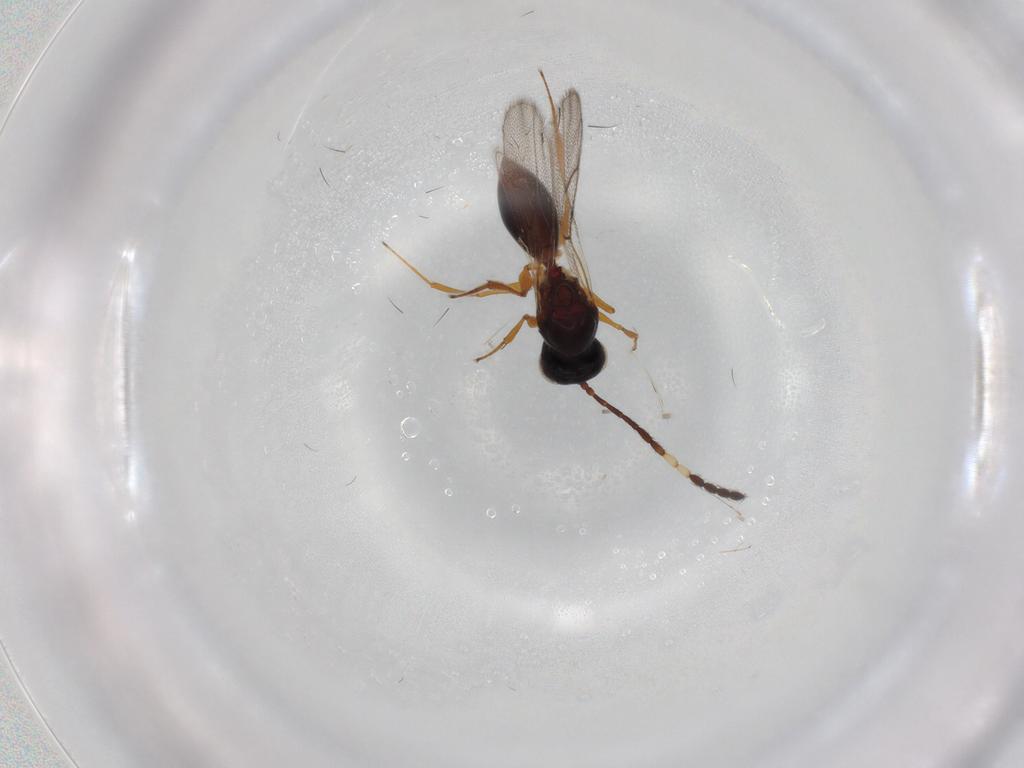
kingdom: Animalia
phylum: Arthropoda
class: Insecta
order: Hymenoptera
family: Figitidae
